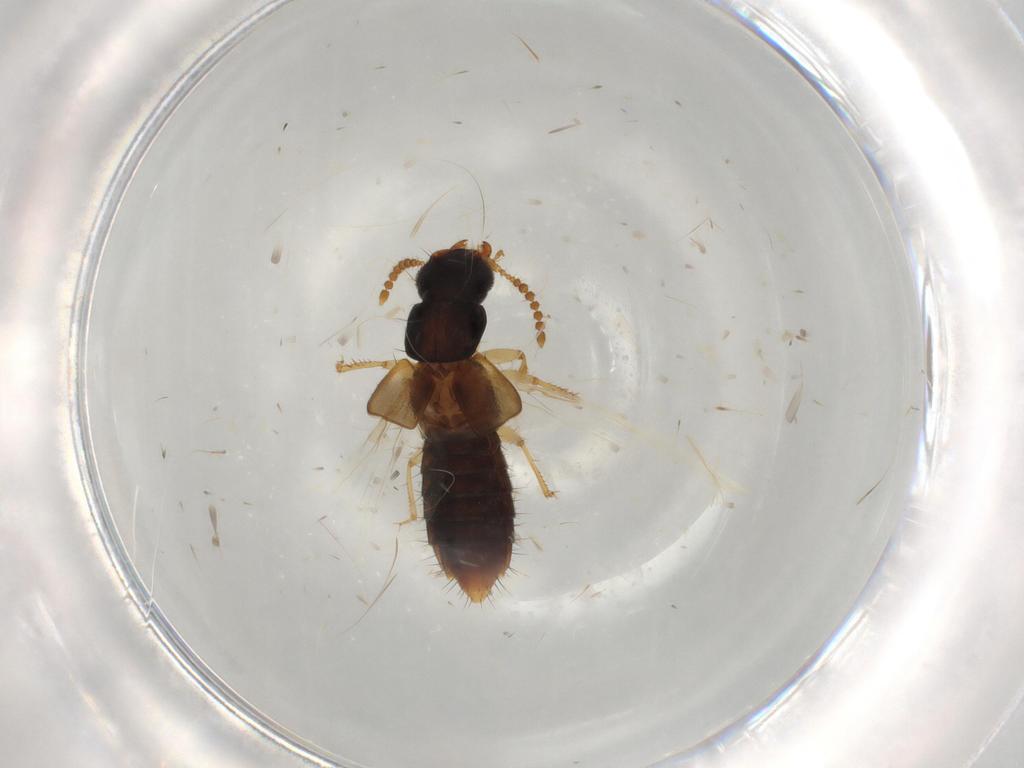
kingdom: Animalia
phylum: Arthropoda
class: Insecta
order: Coleoptera
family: Staphylinidae
